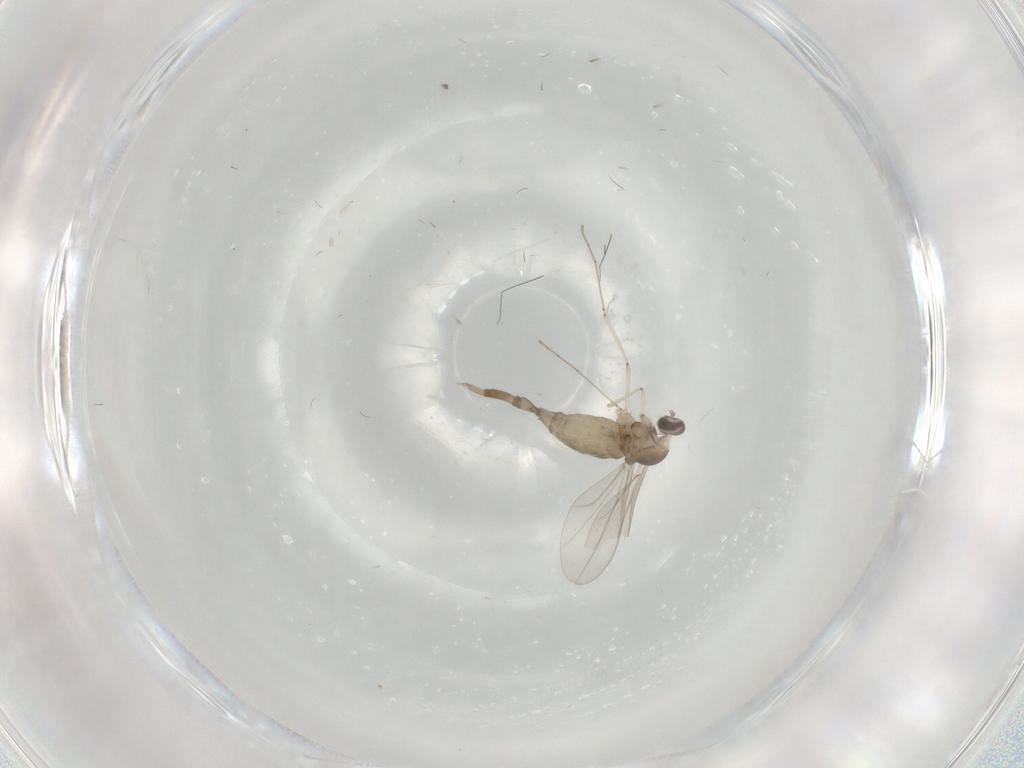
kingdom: Animalia
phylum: Arthropoda
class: Insecta
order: Diptera
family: Cecidomyiidae
